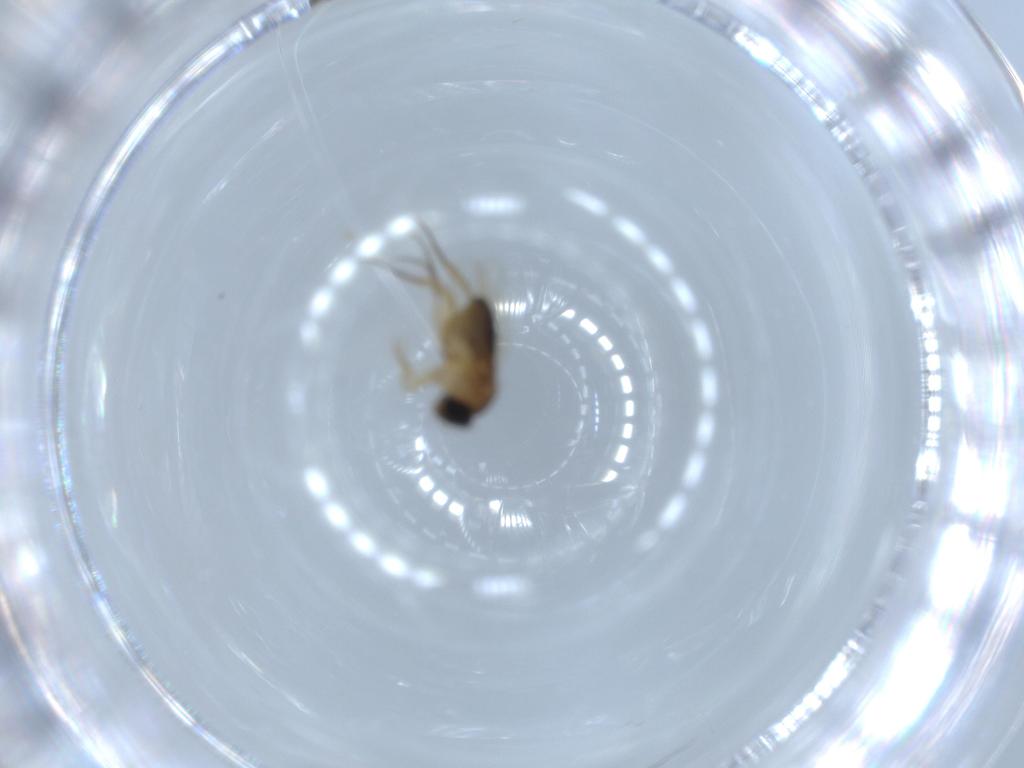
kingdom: Animalia
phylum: Arthropoda
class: Insecta
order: Diptera
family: Phoridae
